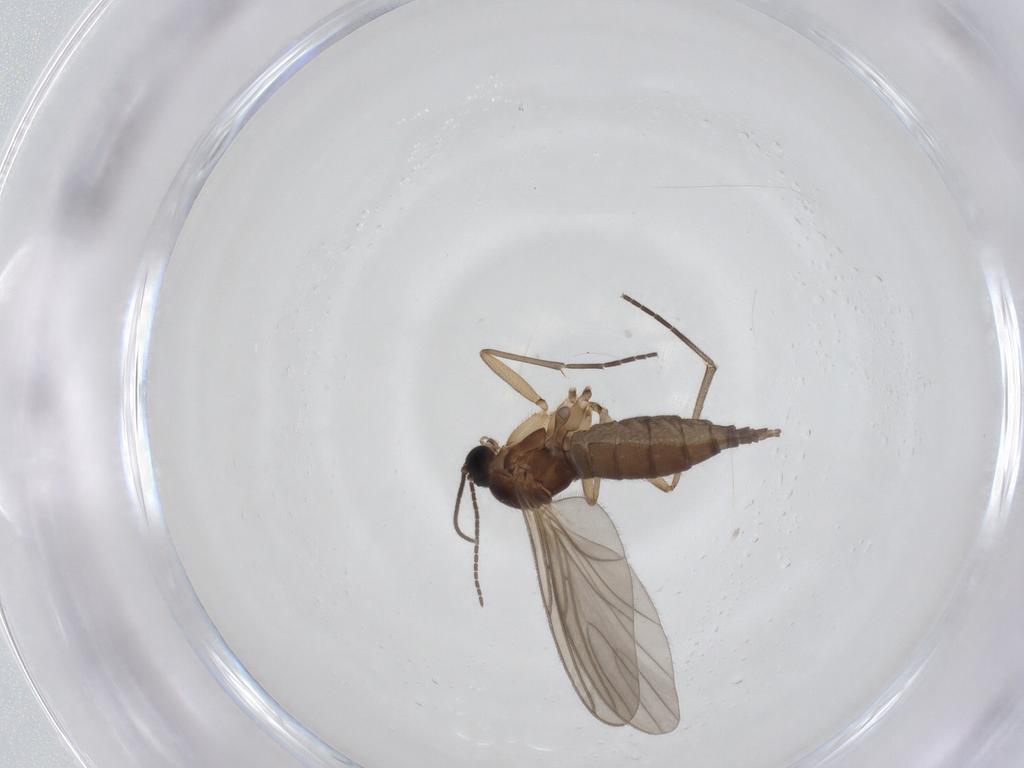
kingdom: Animalia
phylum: Arthropoda
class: Insecta
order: Diptera
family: Sciaridae
